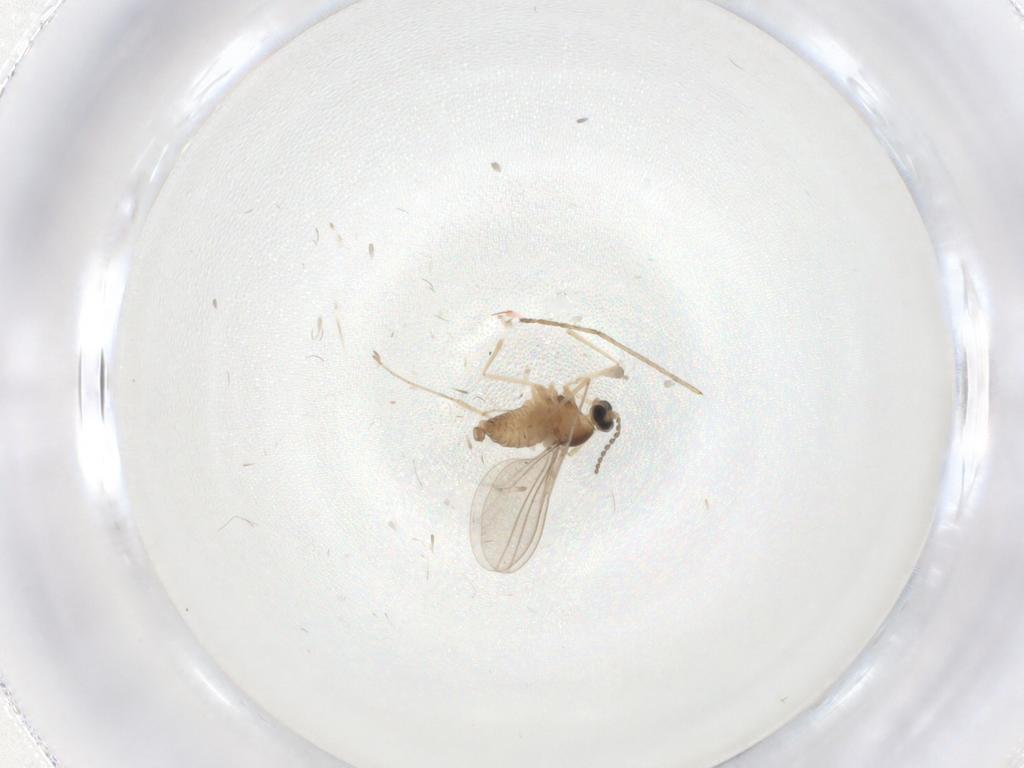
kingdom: Animalia
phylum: Arthropoda
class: Insecta
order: Diptera
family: Cecidomyiidae
